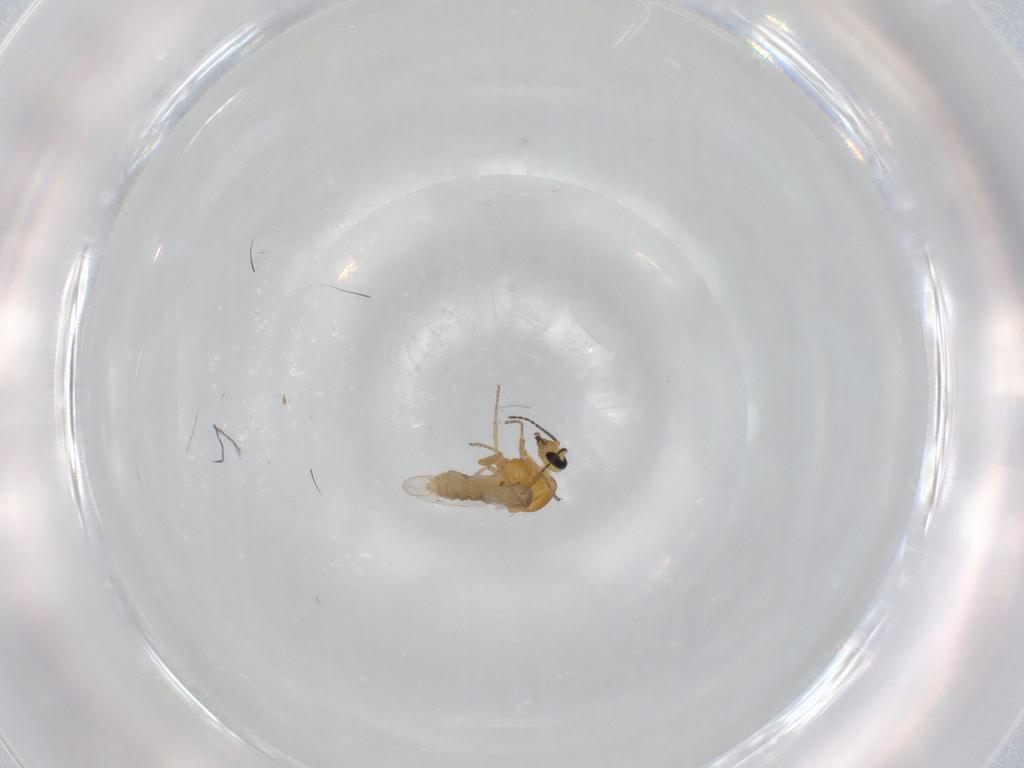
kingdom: Animalia
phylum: Arthropoda
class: Insecta
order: Diptera
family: Ceratopogonidae
